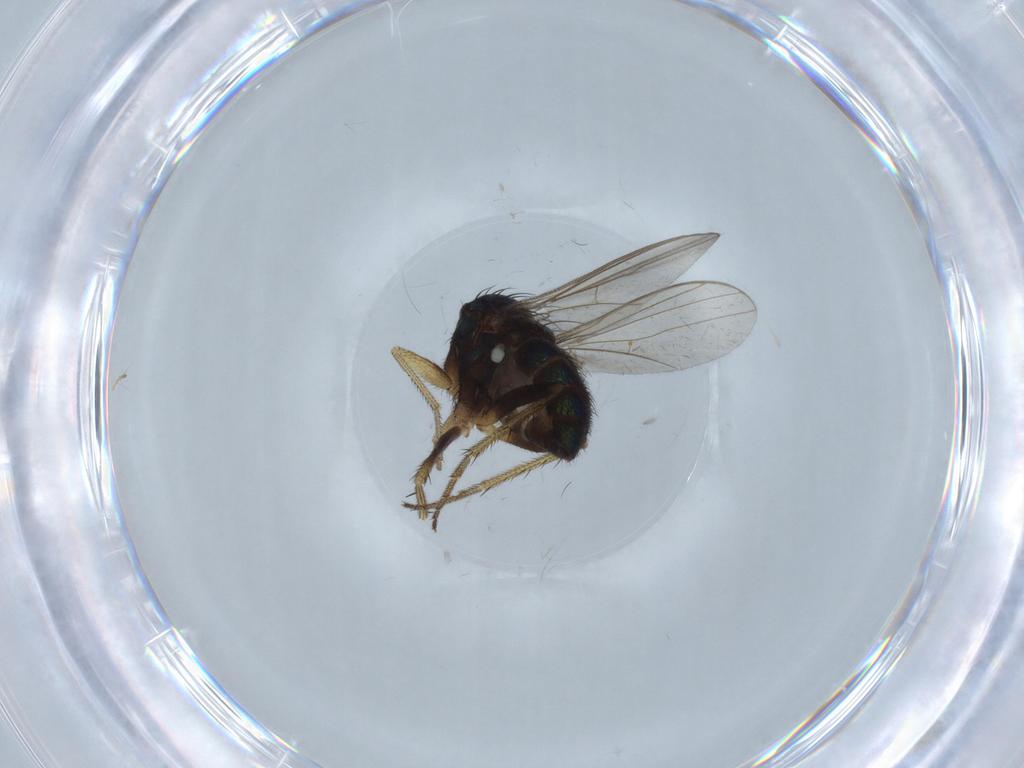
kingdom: Animalia
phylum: Arthropoda
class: Insecta
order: Diptera
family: Dolichopodidae
